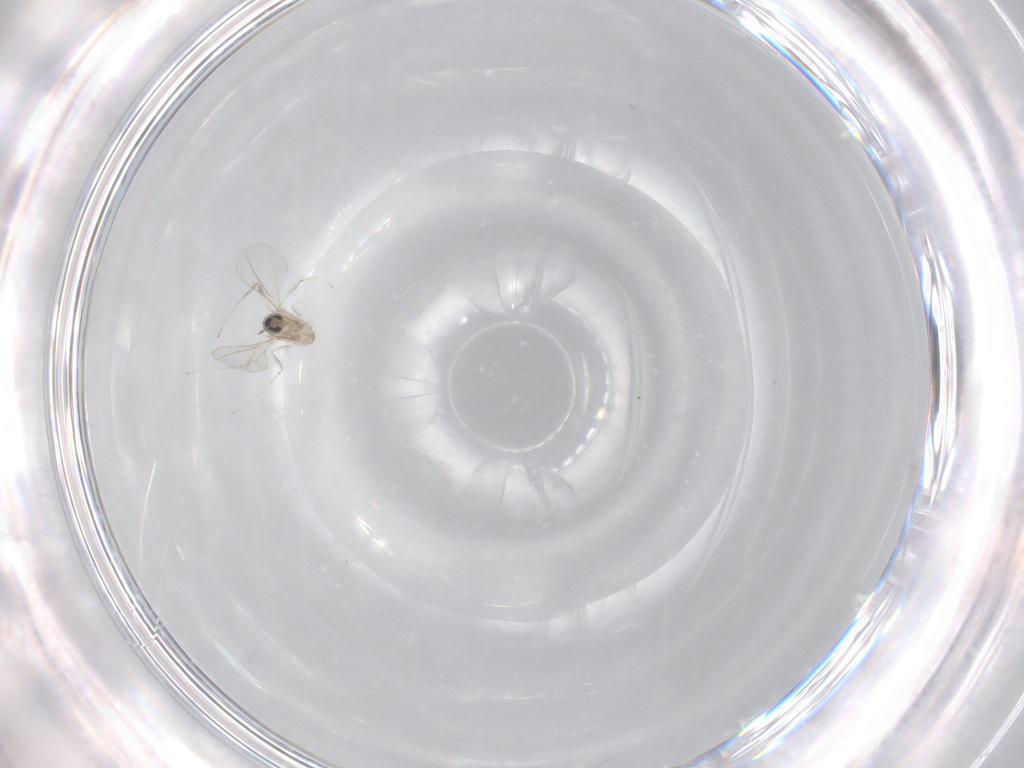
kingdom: Animalia
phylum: Arthropoda
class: Insecta
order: Diptera
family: Cecidomyiidae
